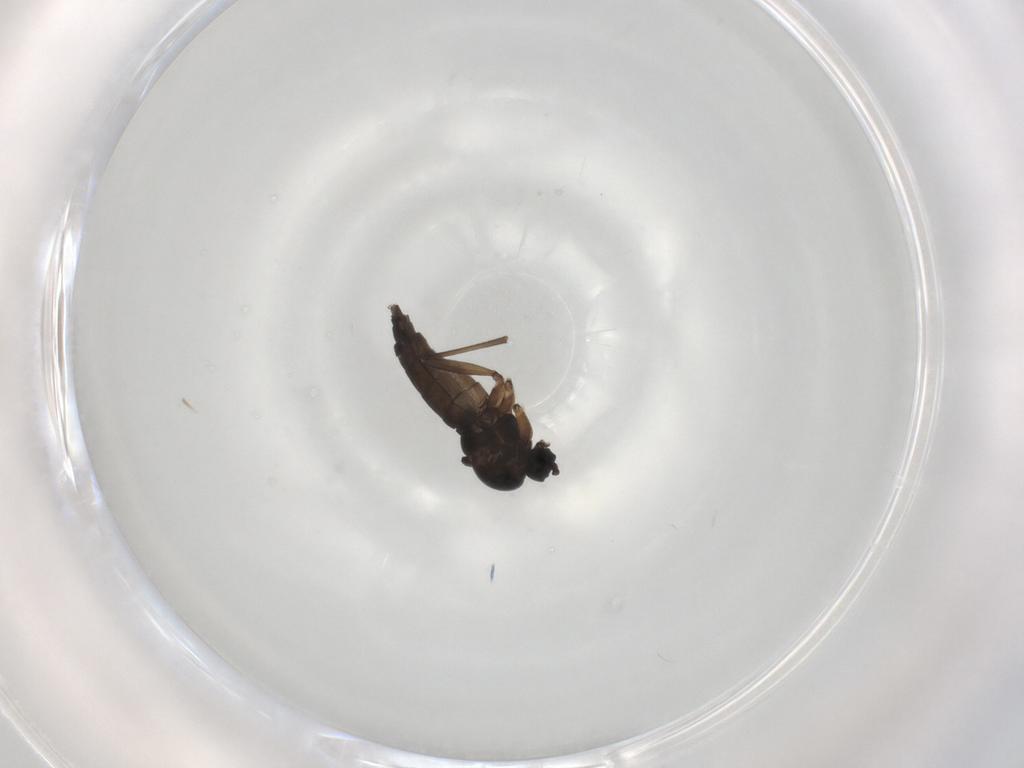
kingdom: Animalia
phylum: Arthropoda
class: Insecta
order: Diptera
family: Sciaridae
